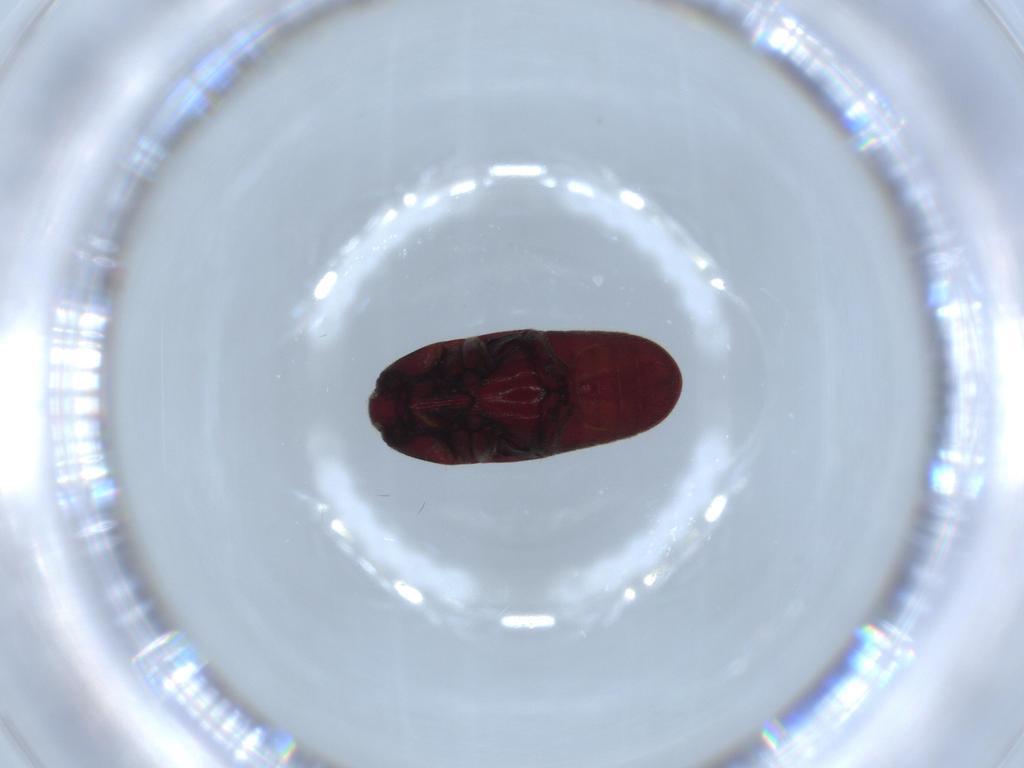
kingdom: Animalia
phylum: Arthropoda
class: Insecta
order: Coleoptera
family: Throscidae
